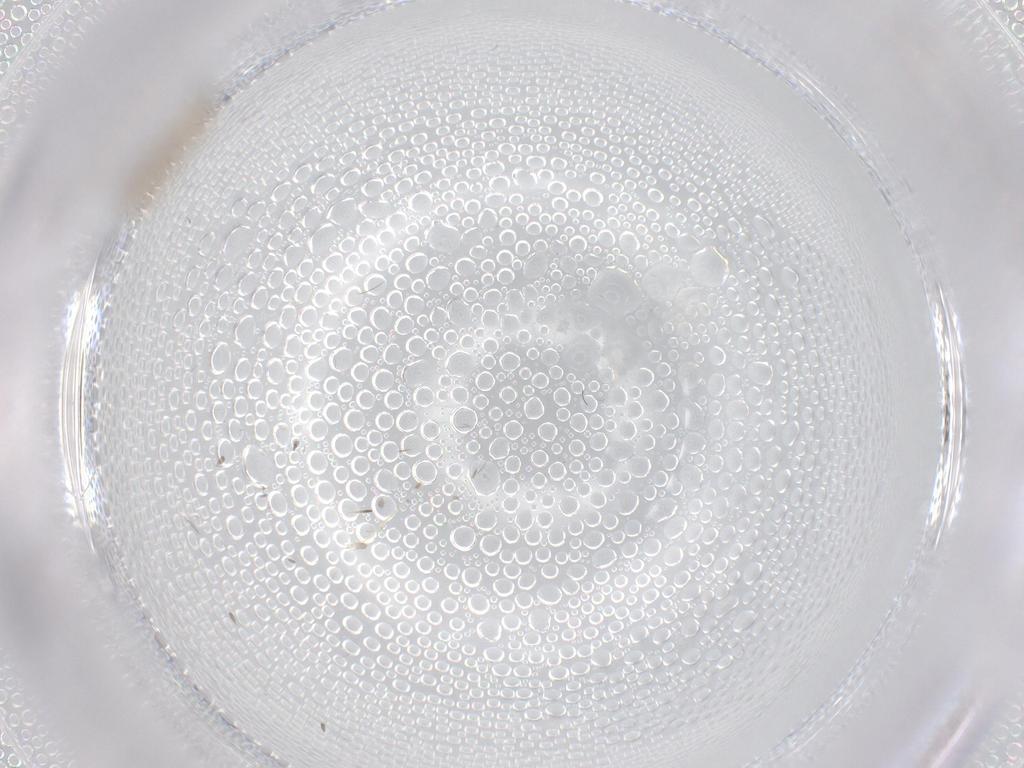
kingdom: Animalia
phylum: Arthropoda
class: Insecta
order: Diptera
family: Chironomidae
